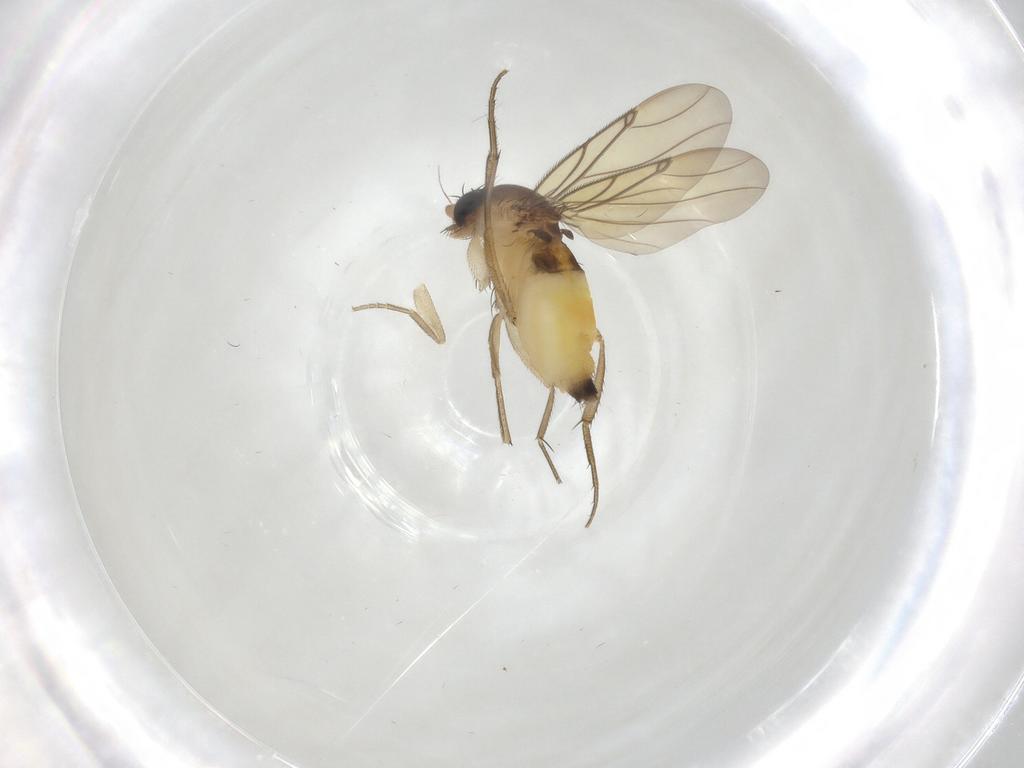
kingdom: Animalia
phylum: Arthropoda
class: Insecta
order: Diptera
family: Phoridae
